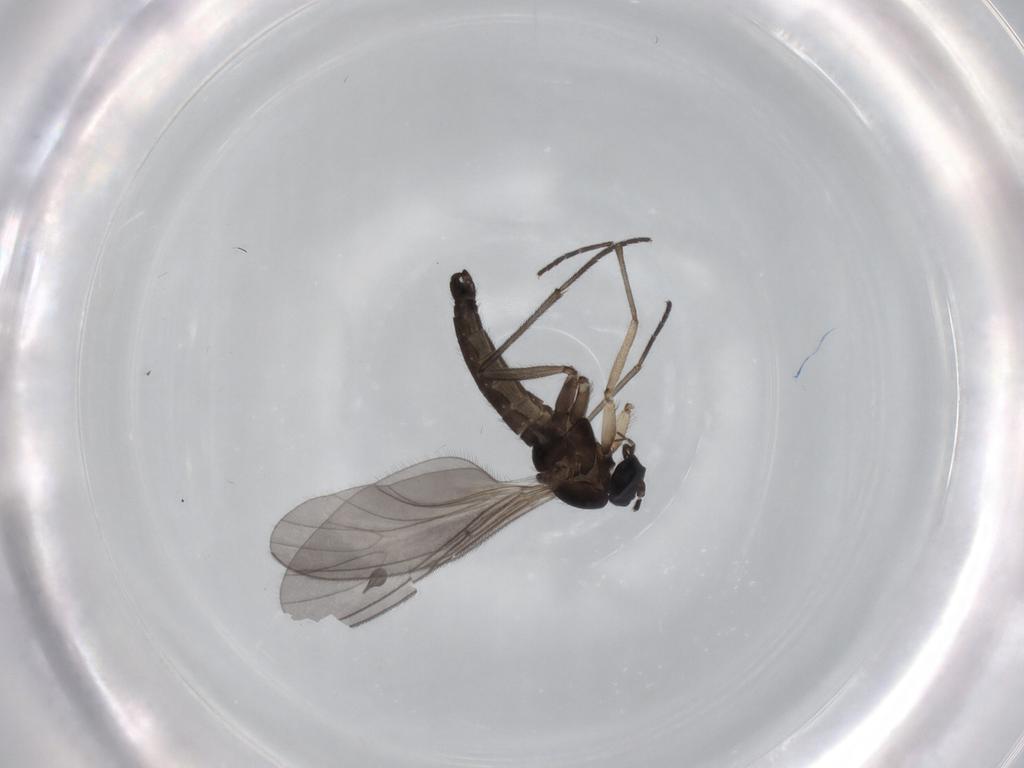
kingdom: Animalia
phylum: Arthropoda
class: Insecta
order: Diptera
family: Sciaridae
